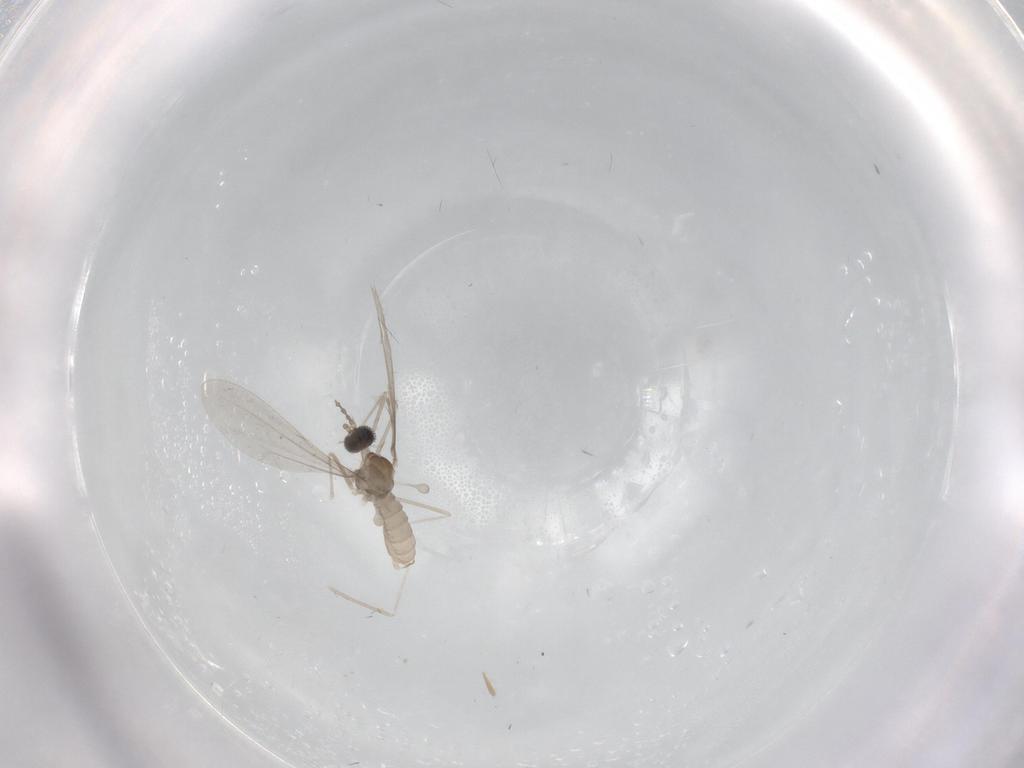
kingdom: Animalia
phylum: Arthropoda
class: Insecta
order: Diptera
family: Cecidomyiidae
